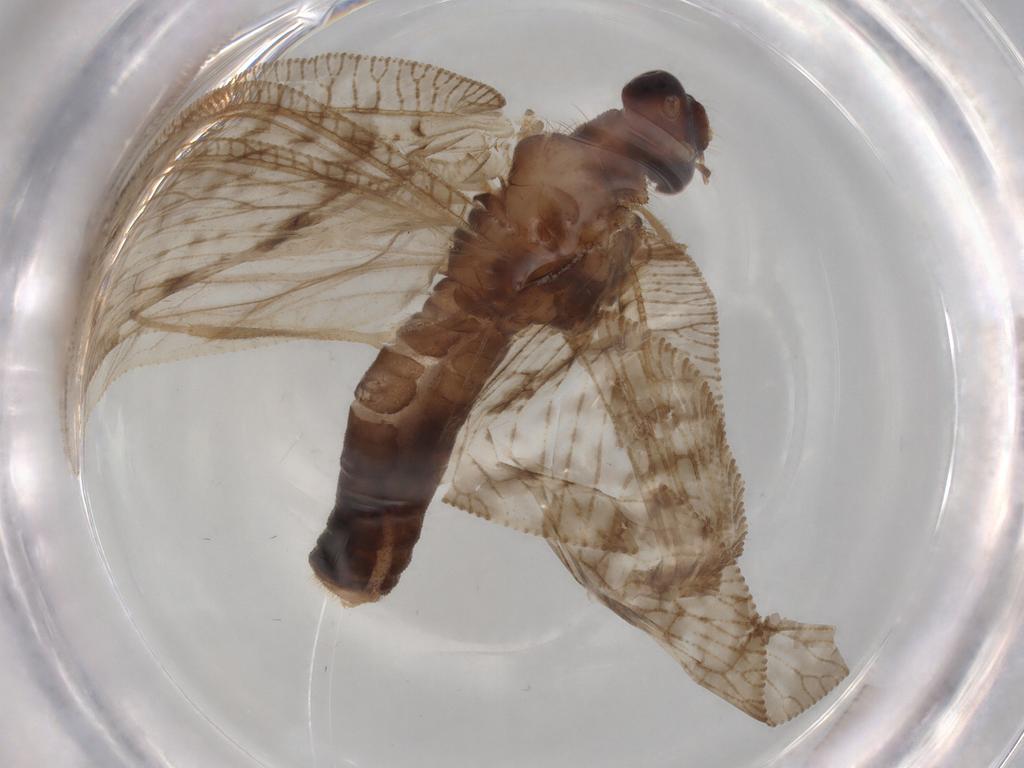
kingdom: Animalia
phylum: Arthropoda
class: Insecta
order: Neuroptera
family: Hemerobiidae
